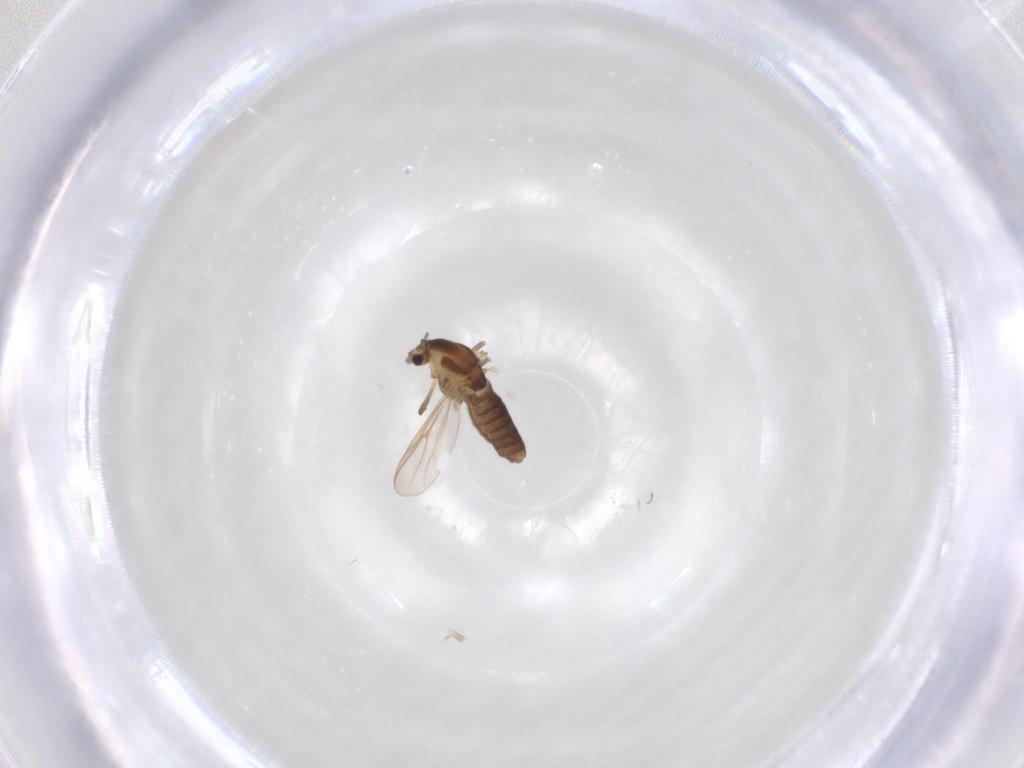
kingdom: Animalia
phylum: Arthropoda
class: Insecta
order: Diptera
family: Chironomidae
